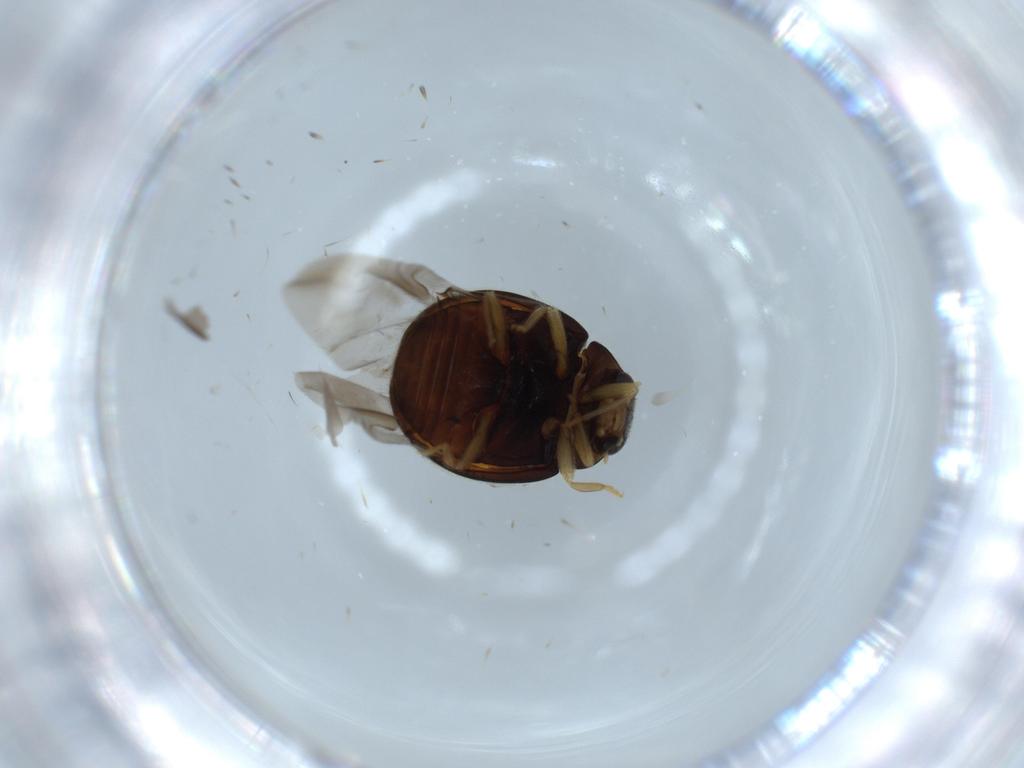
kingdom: Animalia
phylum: Arthropoda
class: Insecta
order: Coleoptera
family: Coccinellidae
